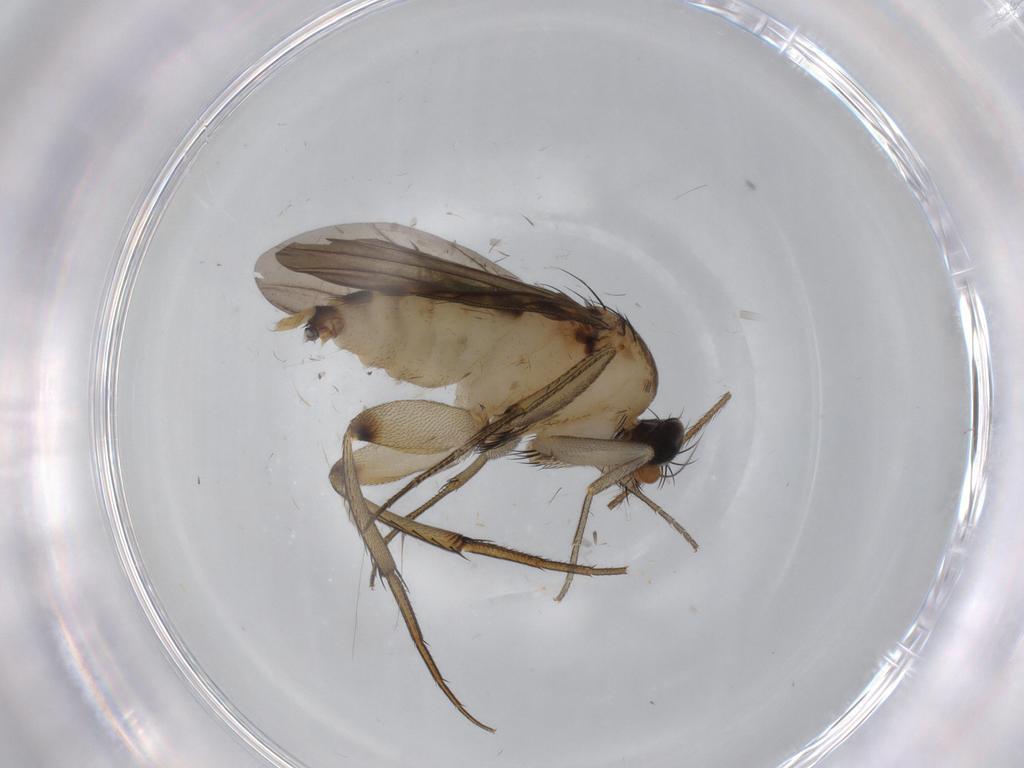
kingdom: Animalia
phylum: Arthropoda
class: Insecta
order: Diptera
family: Phoridae
